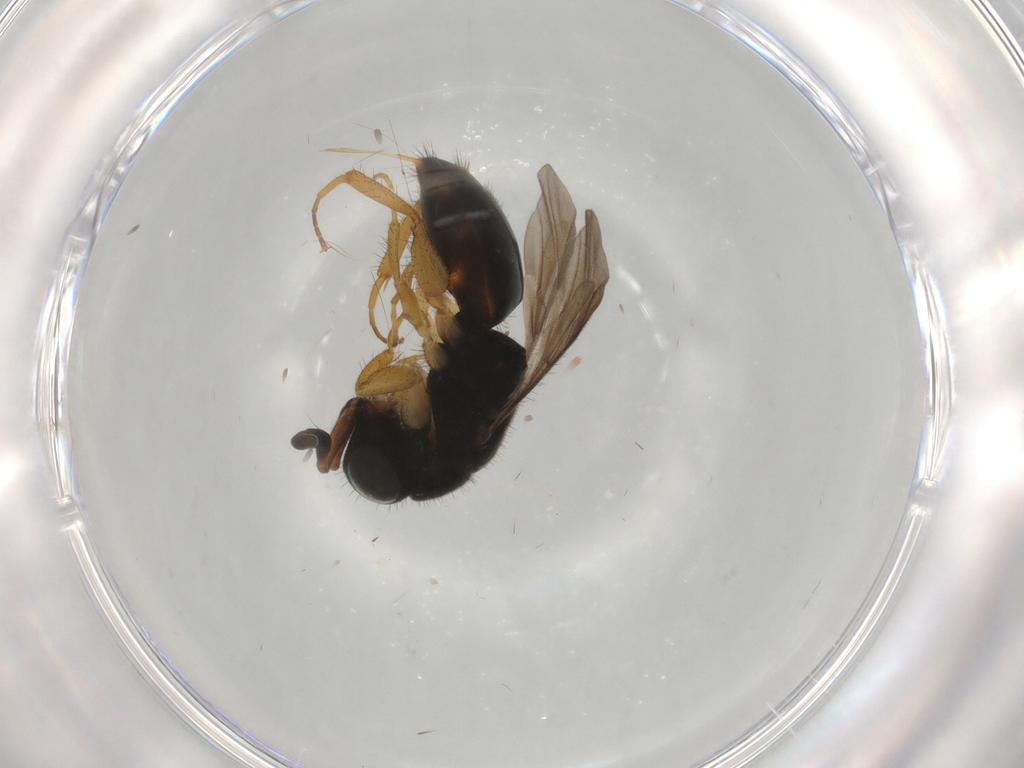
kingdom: Animalia
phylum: Arthropoda
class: Insecta
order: Hymenoptera
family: Chrysididae
